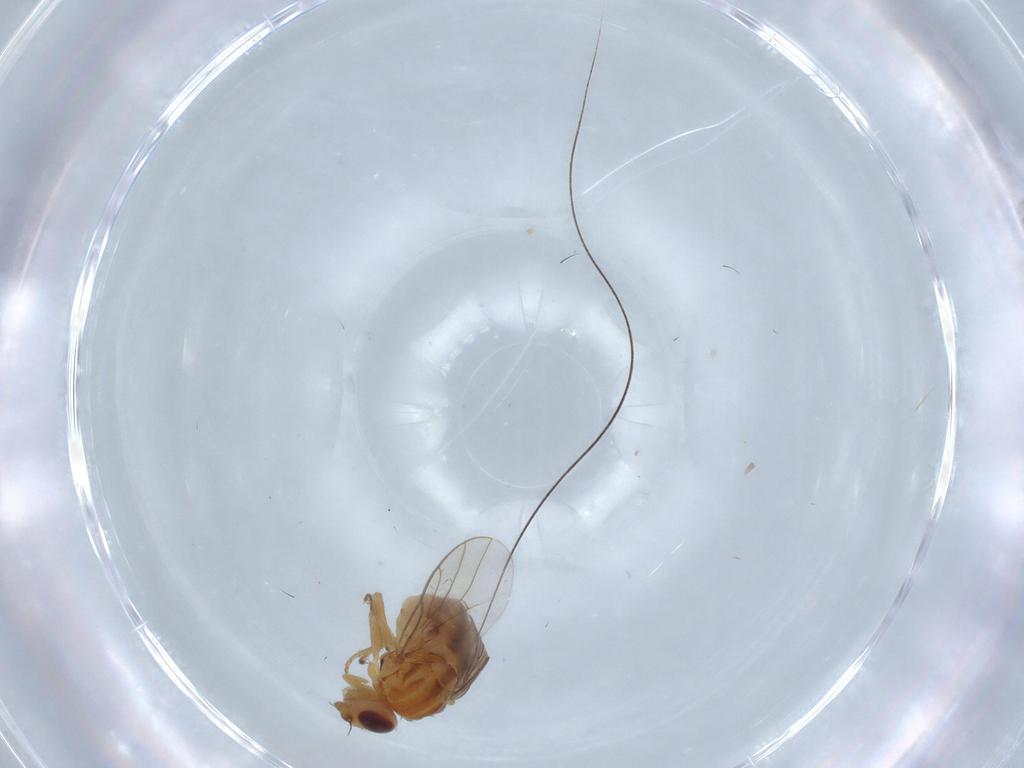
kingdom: Animalia
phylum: Arthropoda
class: Insecta
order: Diptera
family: Chloropidae
